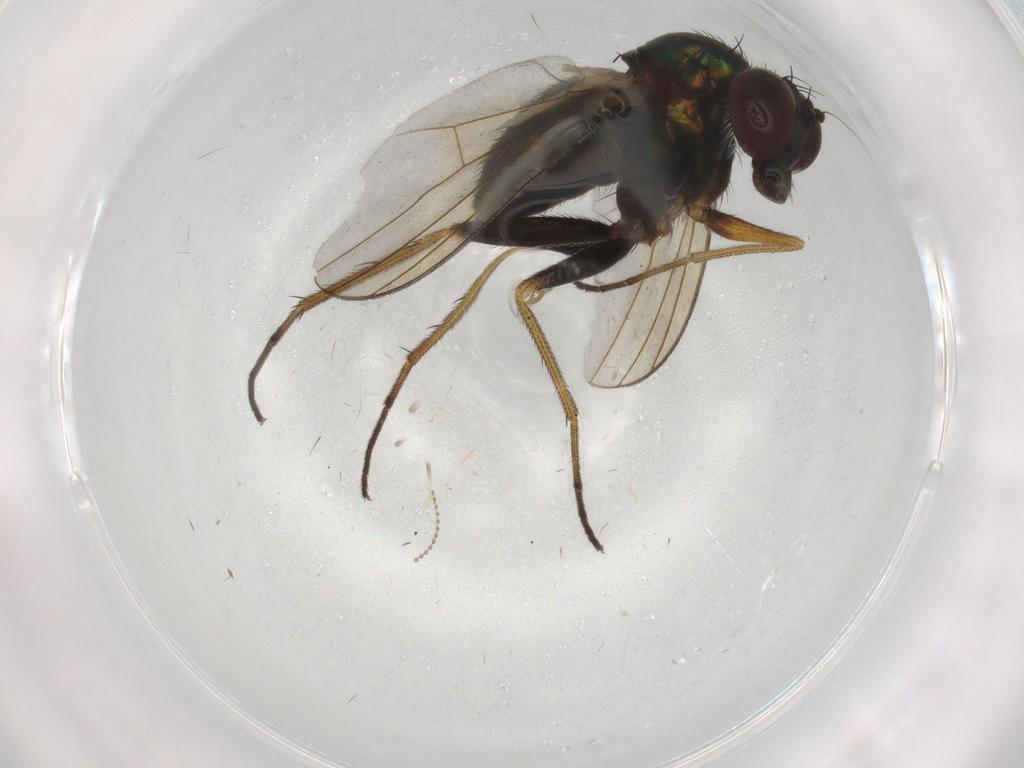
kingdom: Animalia
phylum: Arthropoda
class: Insecta
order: Diptera
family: Dolichopodidae
